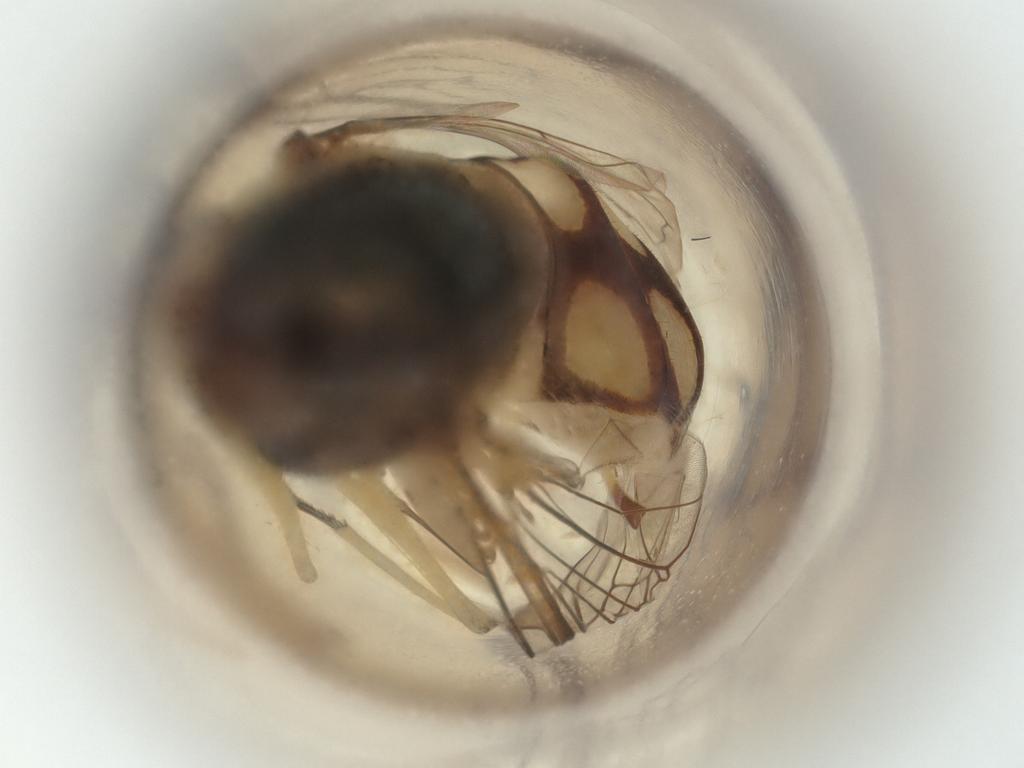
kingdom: Animalia
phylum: Arthropoda
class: Insecta
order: Diptera
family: Syrphidae
